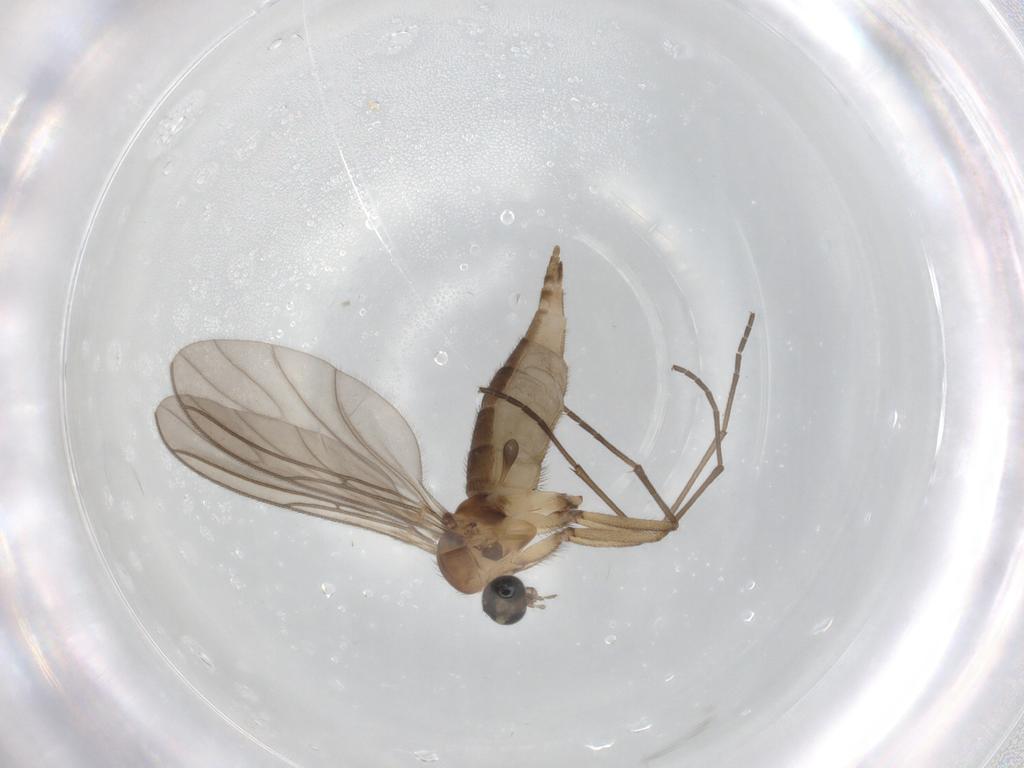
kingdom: Animalia
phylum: Arthropoda
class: Insecta
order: Diptera
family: Sciaridae
